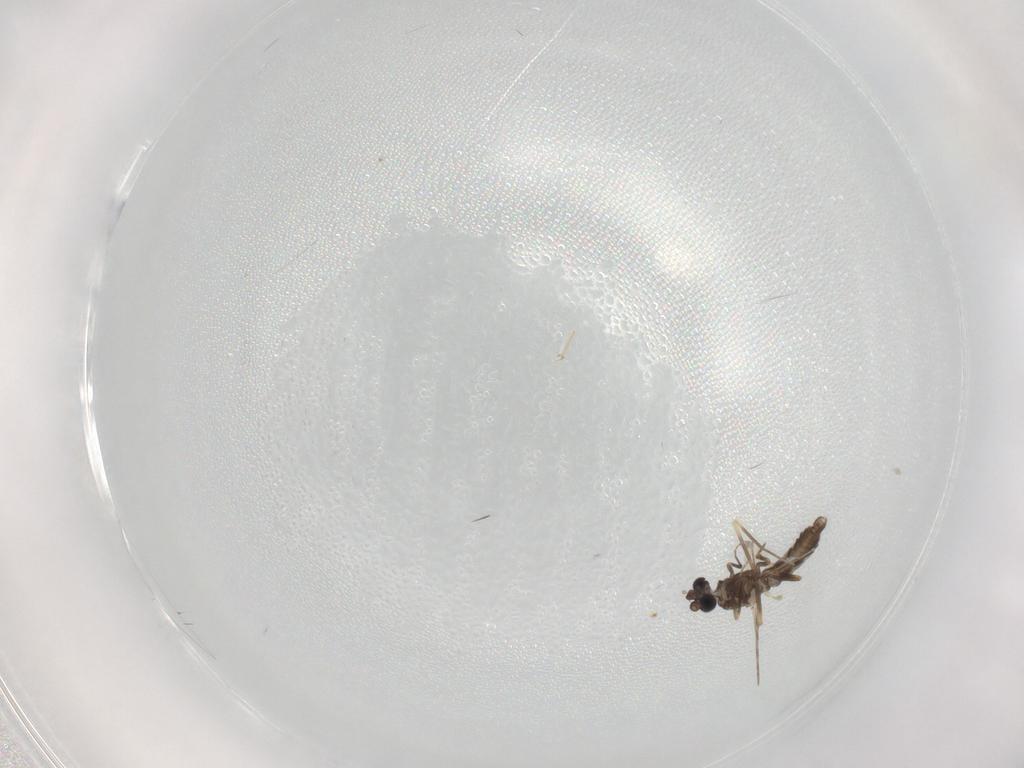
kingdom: Animalia
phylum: Arthropoda
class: Insecta
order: Diptera
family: Ceratopogonidae
